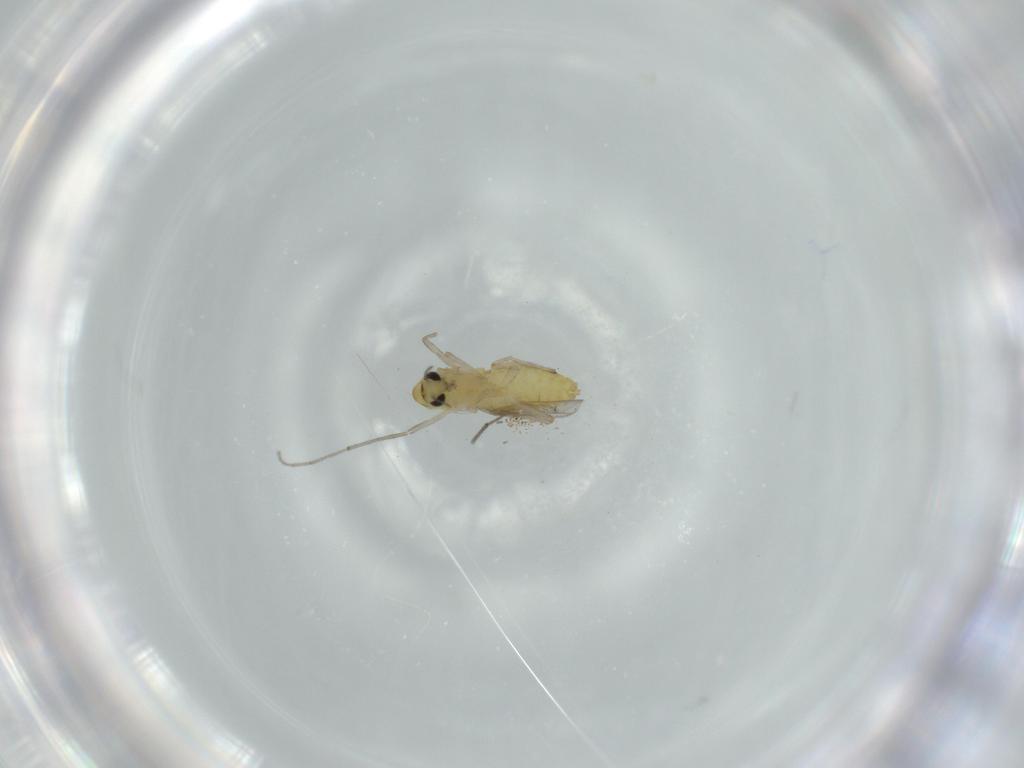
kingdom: Animalia
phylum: Arthropoda
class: Insecta
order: Diptera
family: Chironomidae
